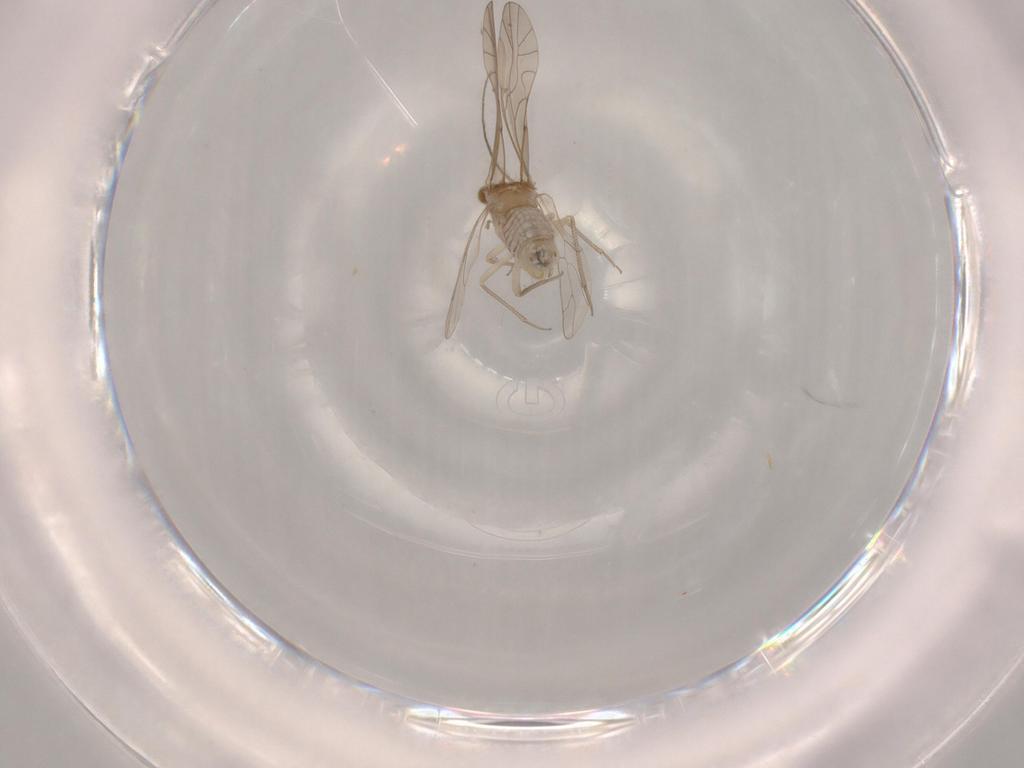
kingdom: Animalia
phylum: Arthropoda
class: Insecta
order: Psocodea
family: Lachesillidae
